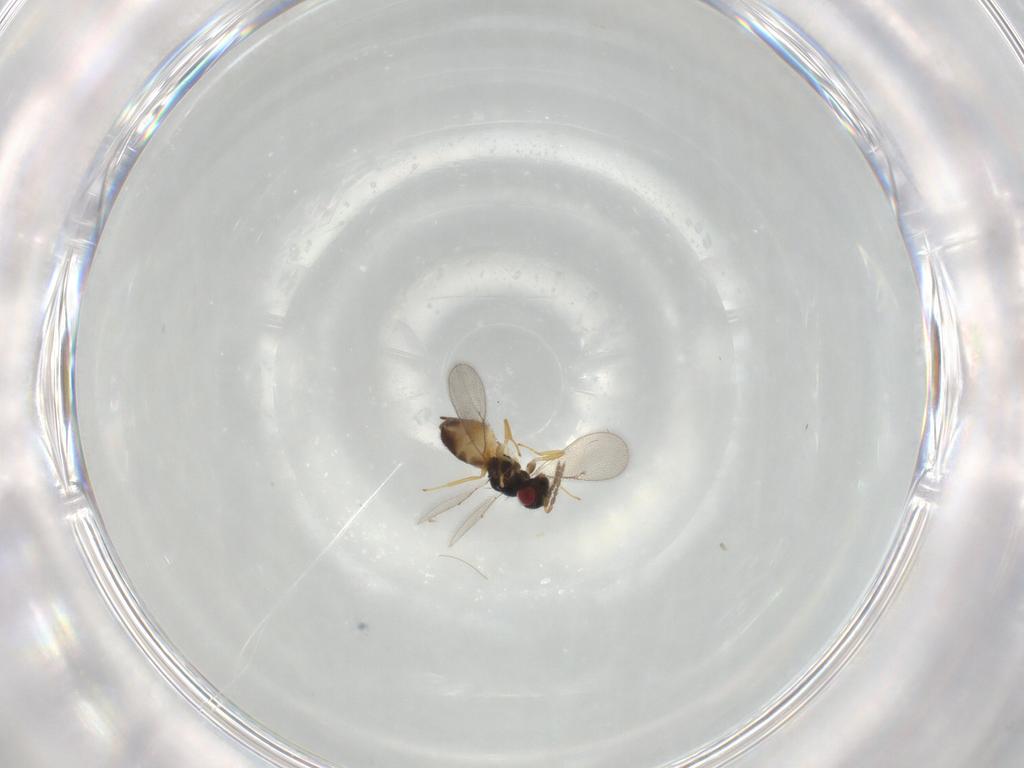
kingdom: Animalia
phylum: Arthropoda
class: Insecta
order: Hymenoptera
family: Eulophidae
